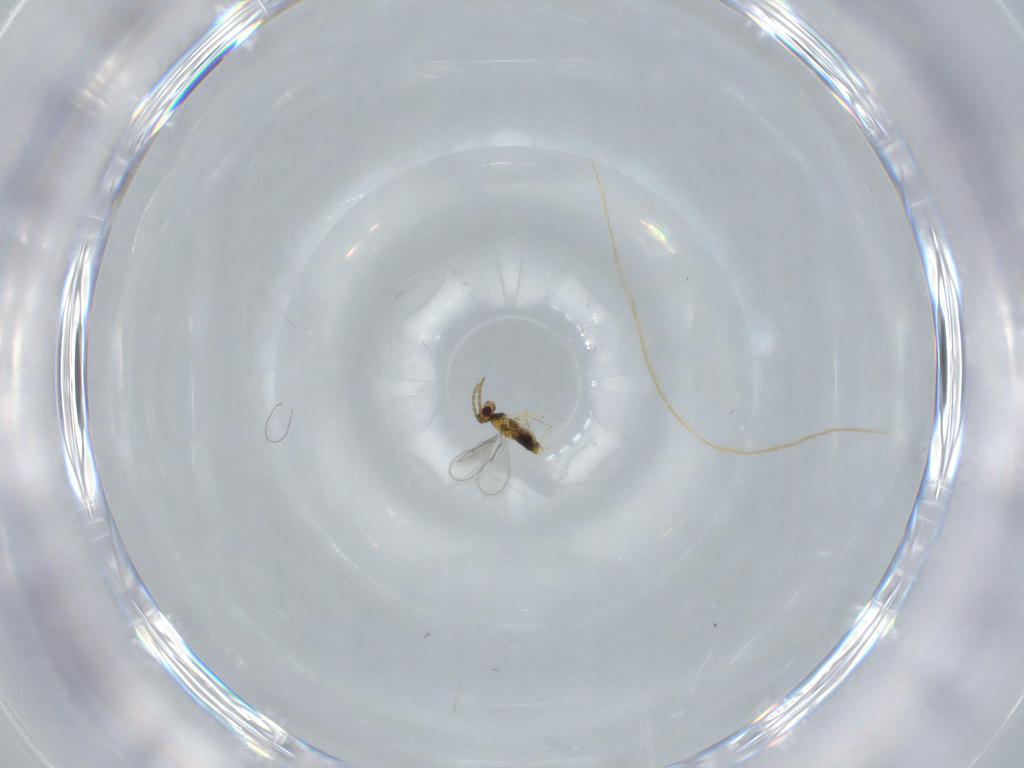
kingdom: Animalia
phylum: Arthropoda
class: Insecta
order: Hymenoptera
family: Aphelinidae
